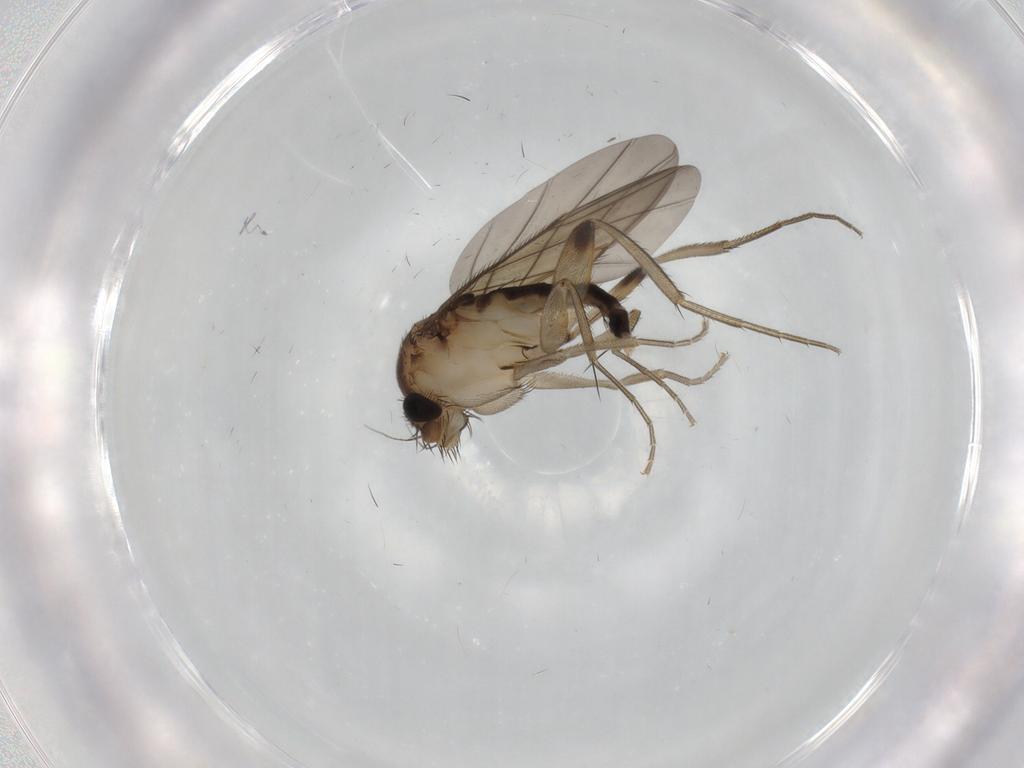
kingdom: Animalia
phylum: Arthropoda
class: Insecta
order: Diptera
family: Phoridae
